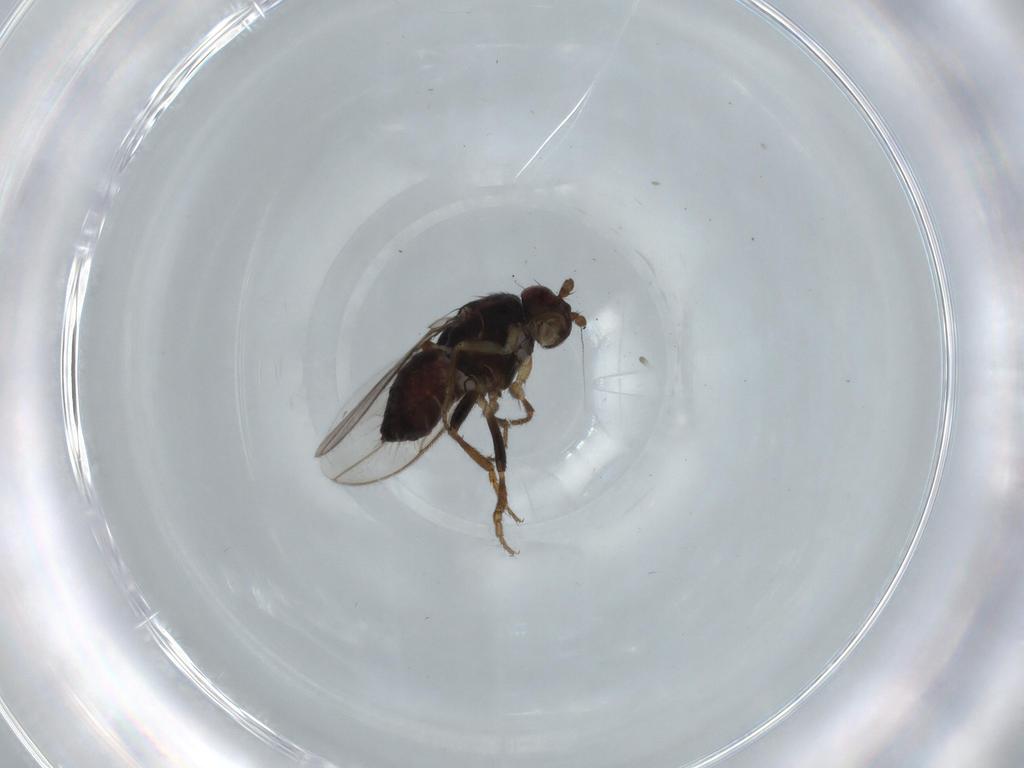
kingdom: Animalia
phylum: Arthropoda
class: Insecta
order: Diptera
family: Sphaeroceridae
